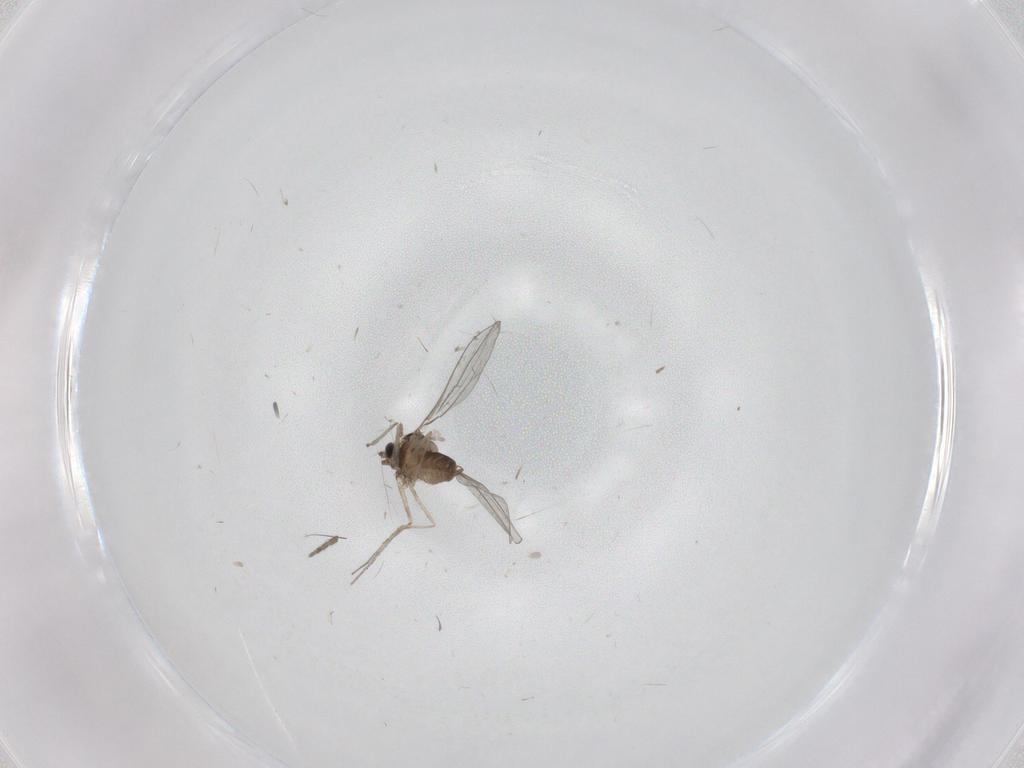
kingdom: Animalia
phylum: Arthropoda
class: Insecta
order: Diptera
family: Cecidomyiidae
